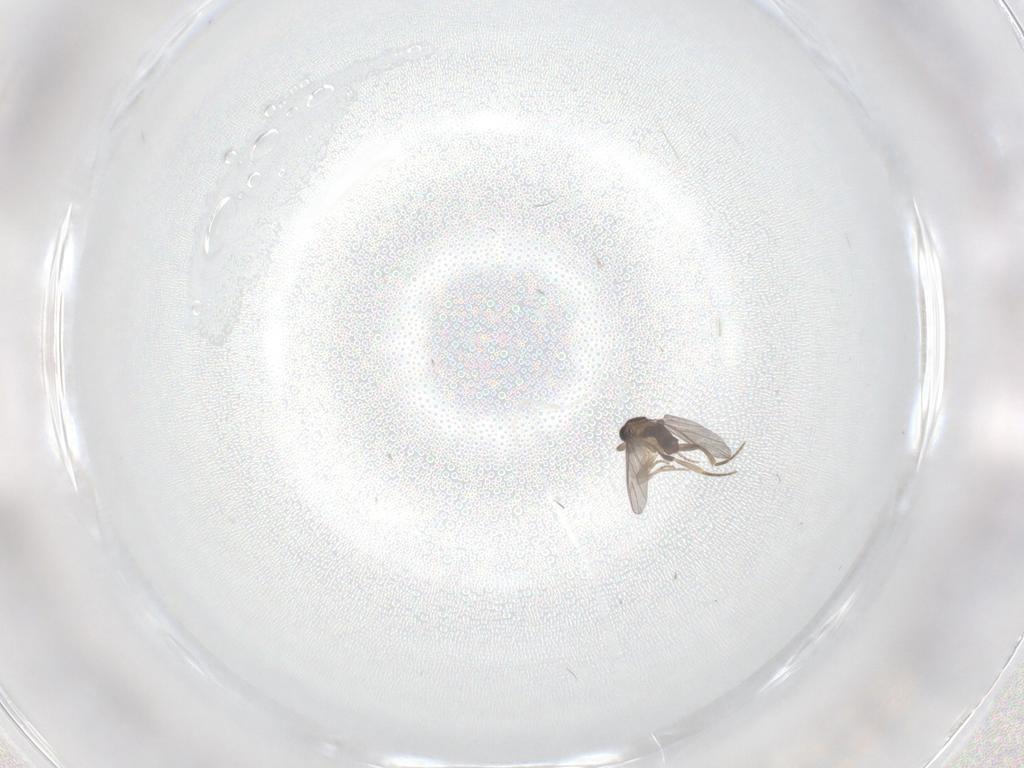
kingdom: Animalia
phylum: Arthropoda
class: Insecta
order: Diptera
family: Phoridae
